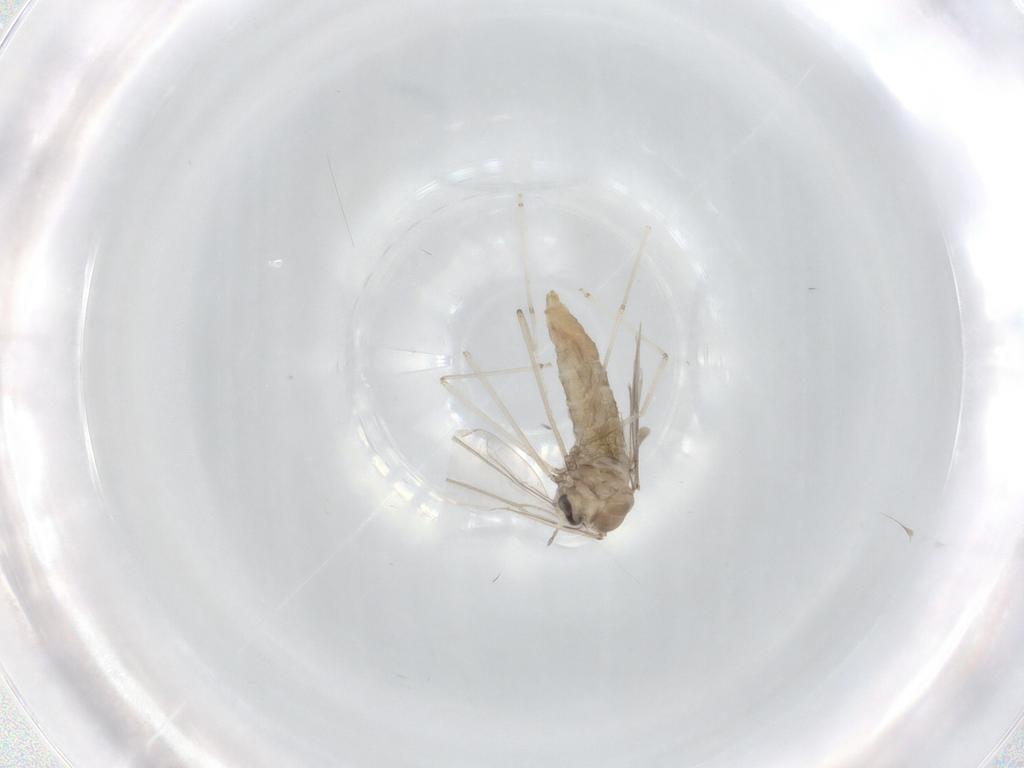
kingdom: Animalia
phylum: Arthropoda
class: Insecta
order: Diptera
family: Cecidomyiidae
